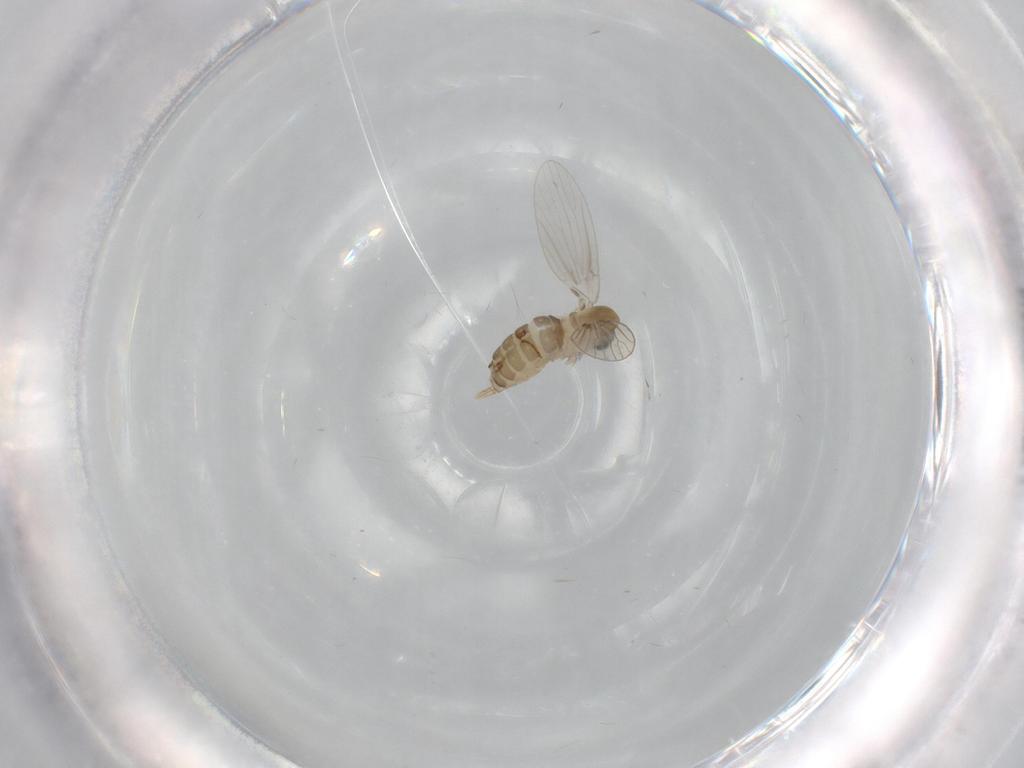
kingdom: Animalia
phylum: Arthropoda
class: Insecta
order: Diptera
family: Psychodidae
